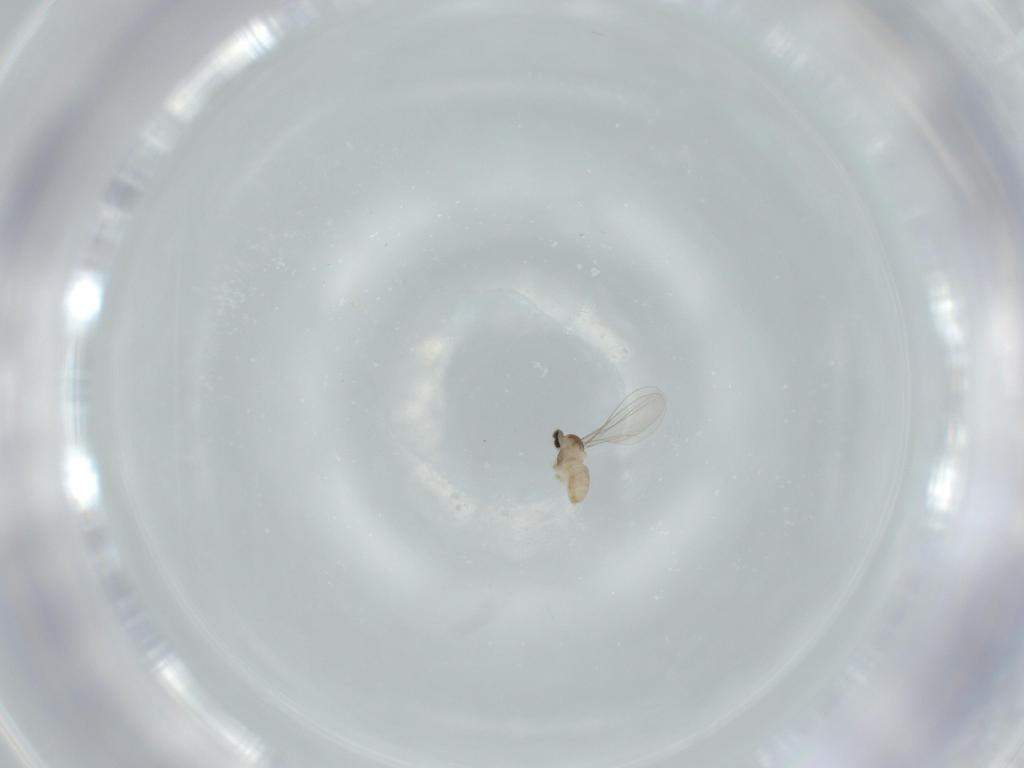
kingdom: Animalia
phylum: Arthropoda
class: Insecta
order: Diptera
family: Cecidomyiidae
